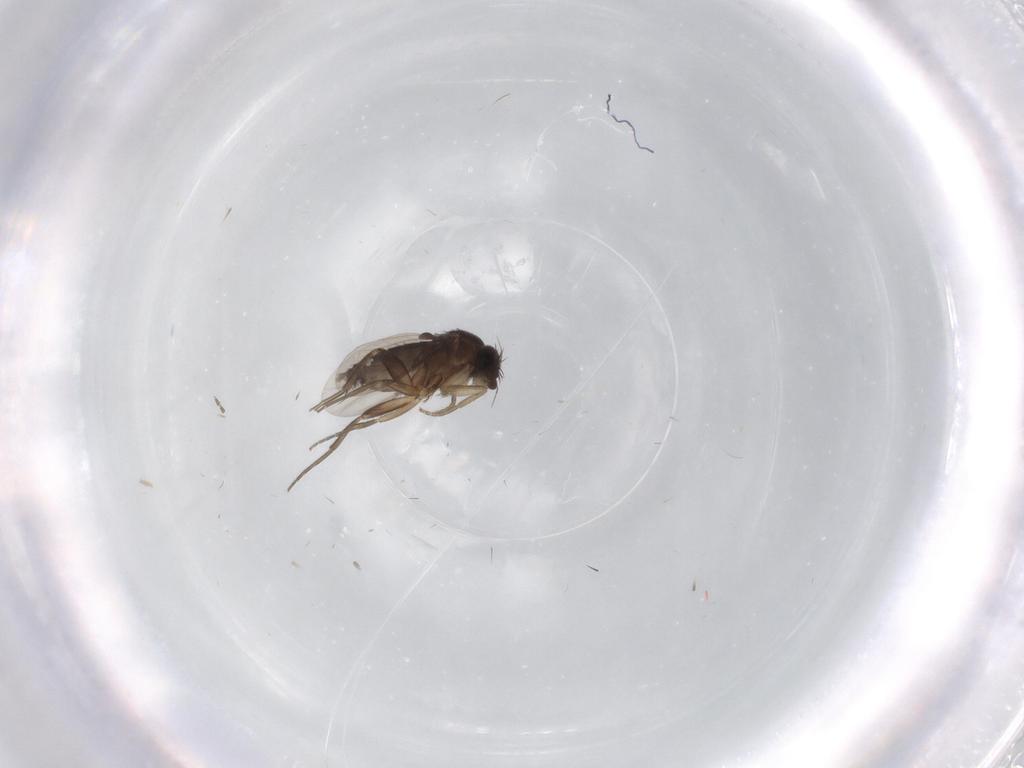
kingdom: Animalia
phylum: Arthropoda
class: Insecta
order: Diptera
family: Phoridae
